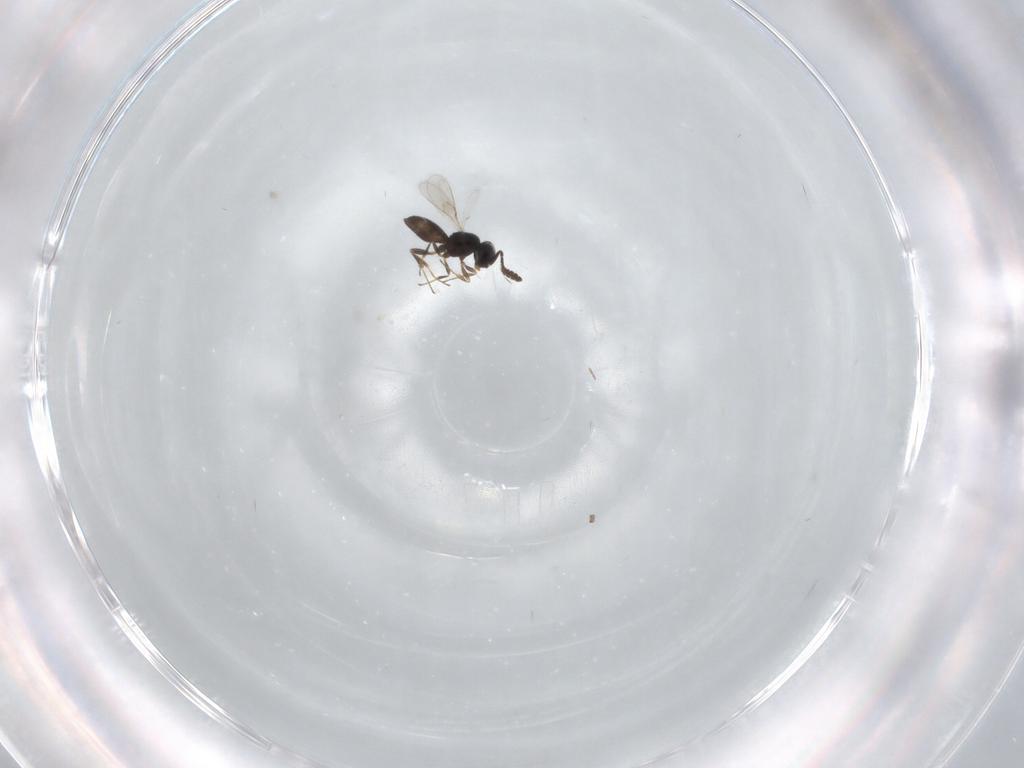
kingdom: Animalia
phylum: Arthropoda
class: Insecta
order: Hymenoptera
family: Scelionidae
